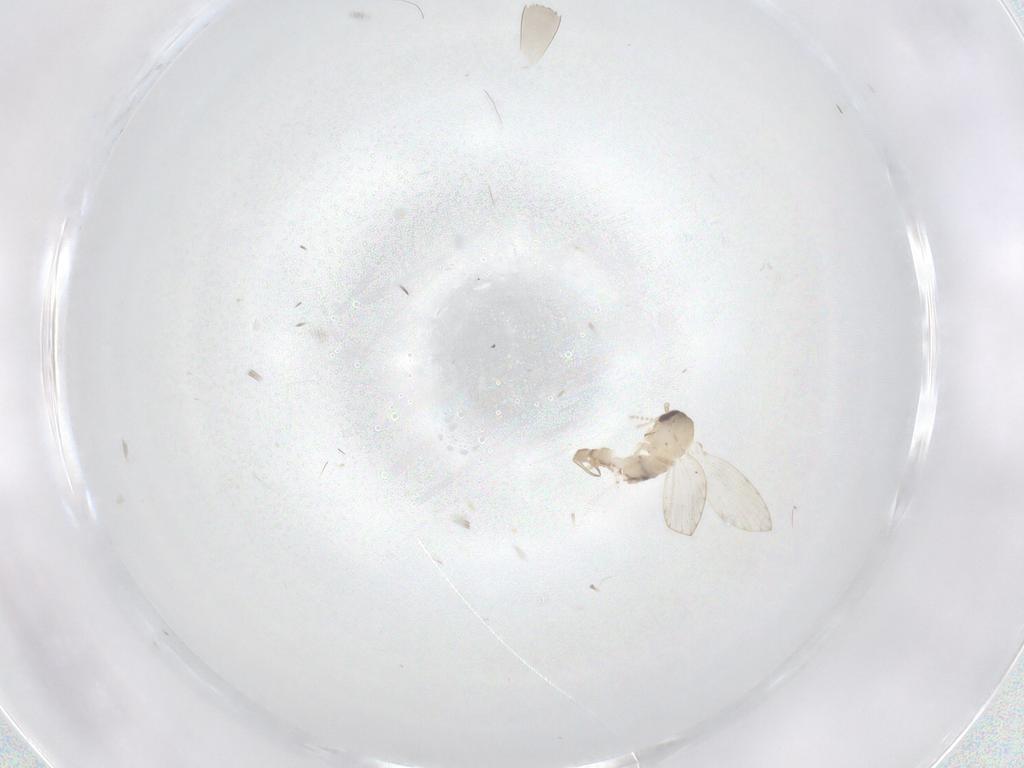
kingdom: Animalia
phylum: Arthropoda
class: Insecta
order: Diptera
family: Psychodidae
